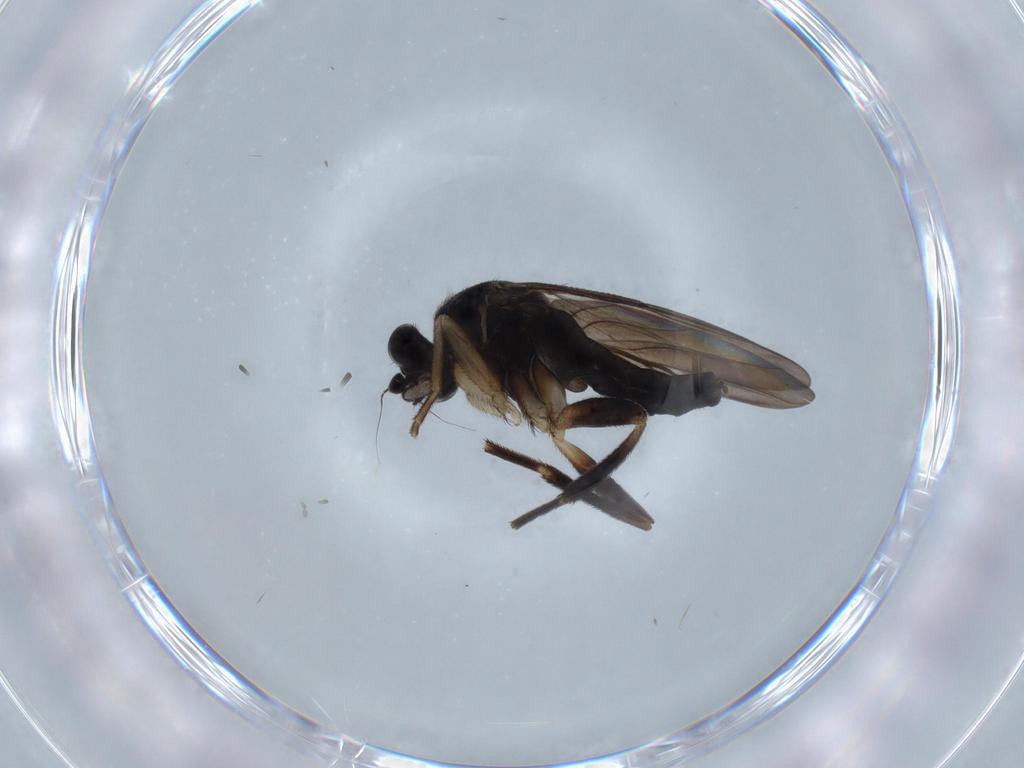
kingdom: Animalia
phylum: Arthropoda
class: Insecta
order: Diptera
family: Phoridae
